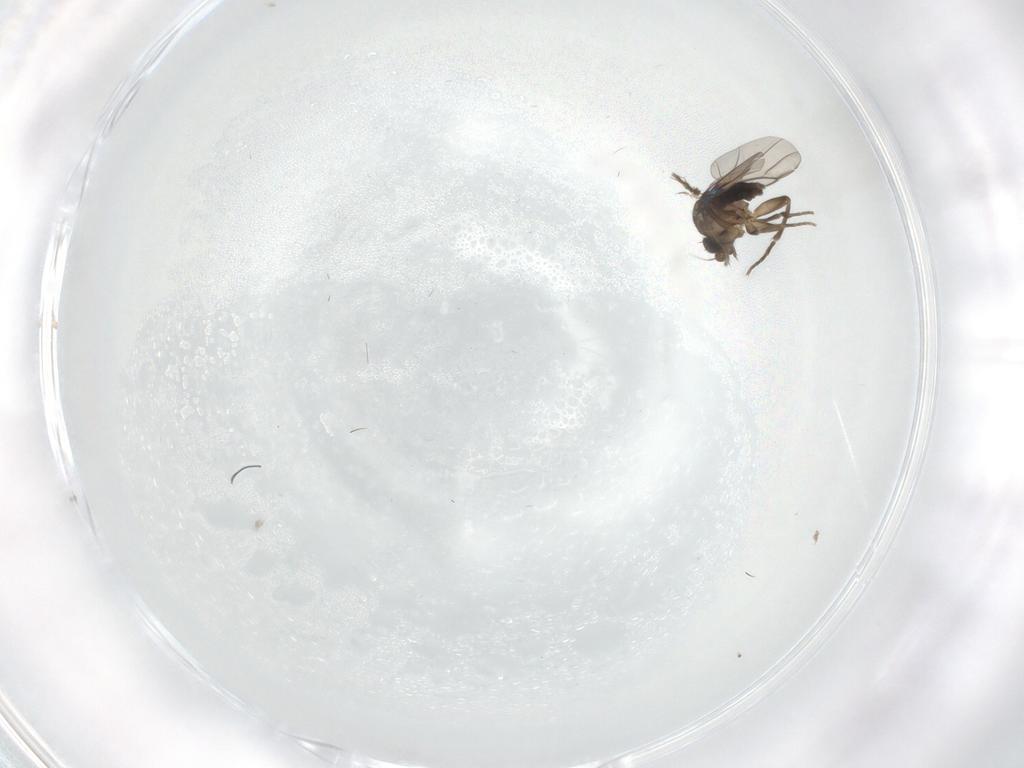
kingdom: Animalia
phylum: Arthropoda
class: Insecta
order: Diptera
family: Phoridae
